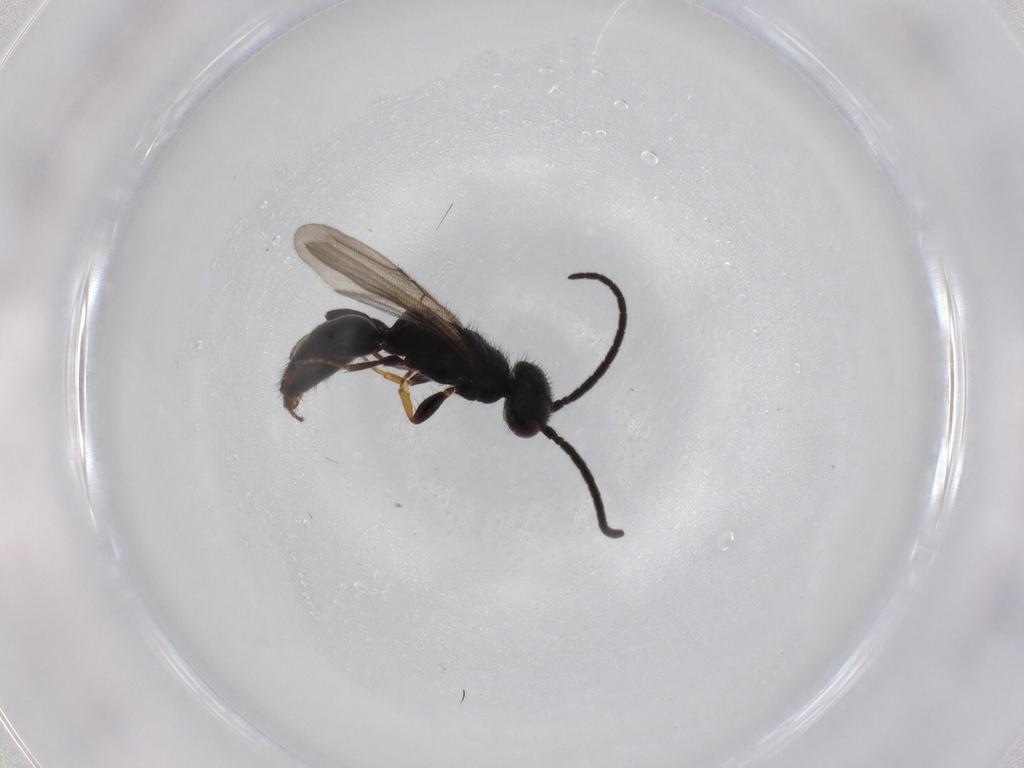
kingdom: Animalia
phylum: Arthropoda
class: Insecta
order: Hymenoptera
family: Bethylidae
